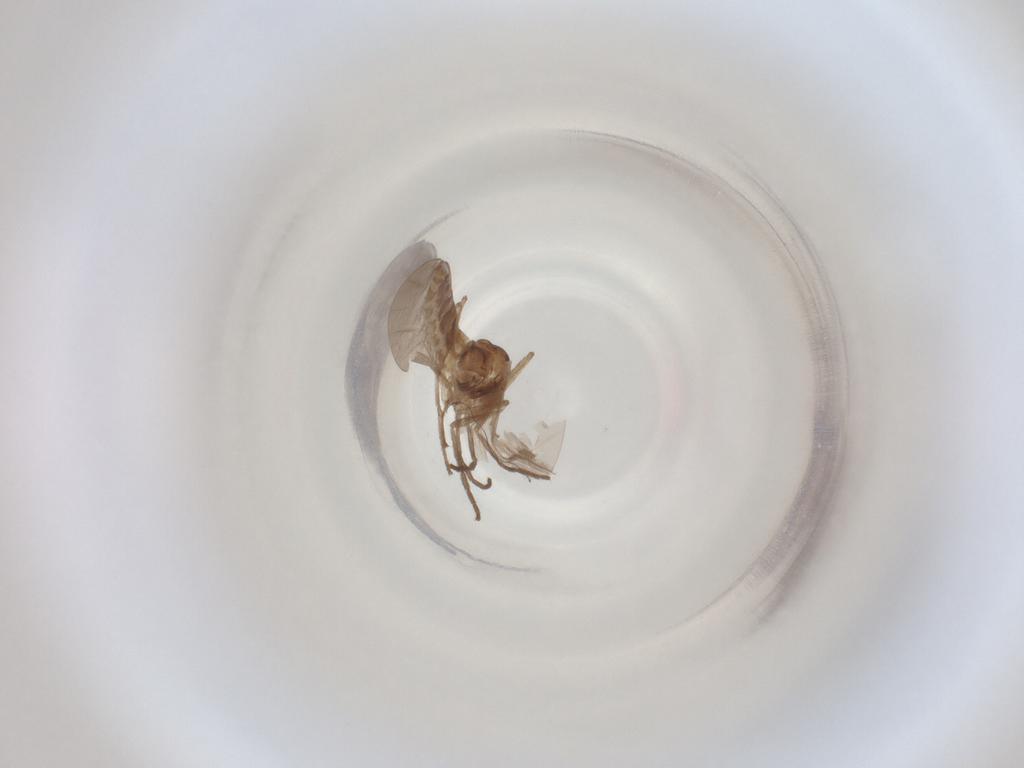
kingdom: Animalia
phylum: Arthropoda
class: Insecta
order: Diptera
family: Cecidomyiidae
